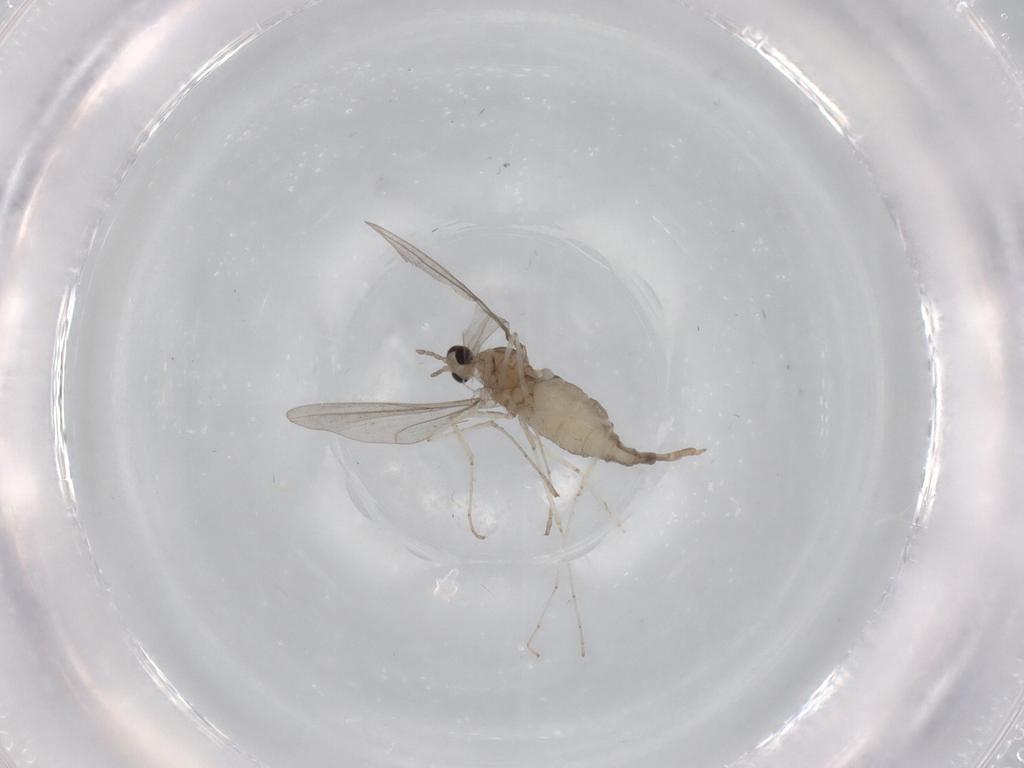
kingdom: Animalia
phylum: Arthropoda
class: Insecta
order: Diptera
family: Cecidomyiidae
